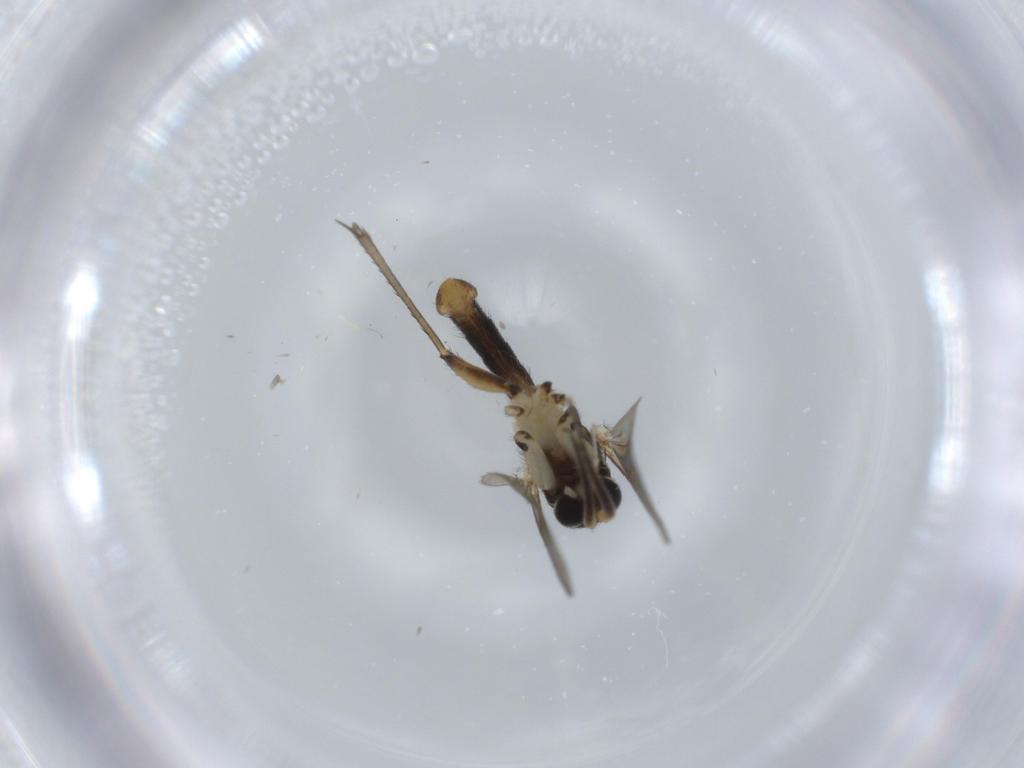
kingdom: Animalia
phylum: Arthropoda
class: Insecta
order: Diptera
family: Mycetophilidae
